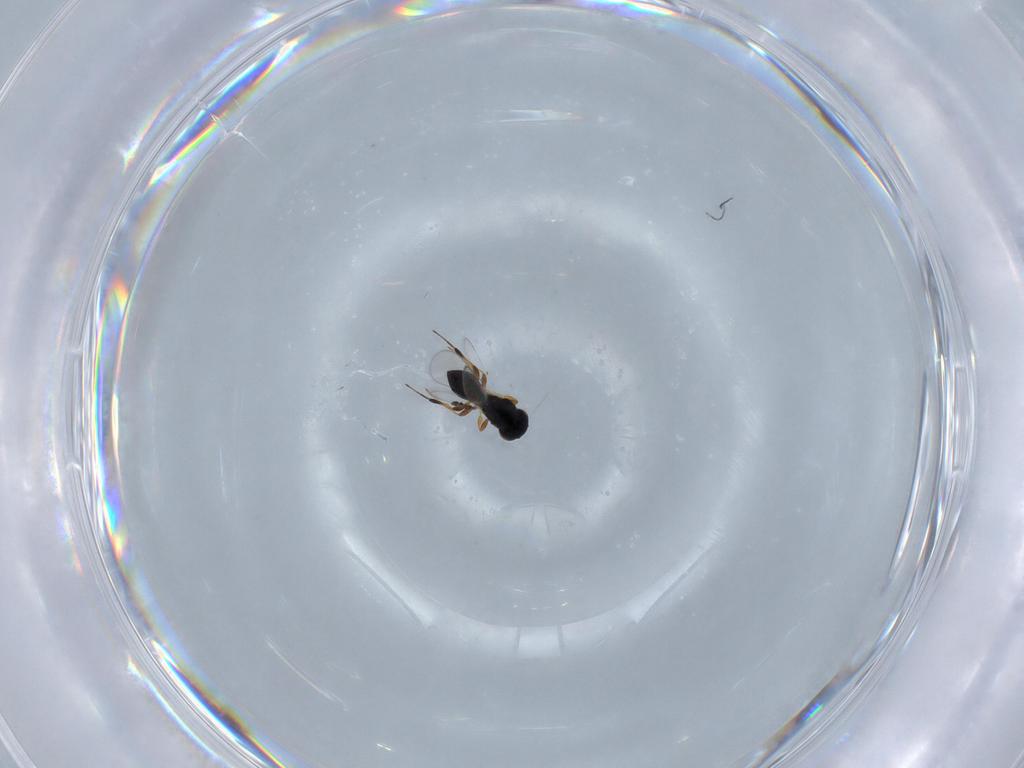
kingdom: Animalia
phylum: Arthropoda
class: Insecta
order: Hymenoptera
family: Platygastridae
